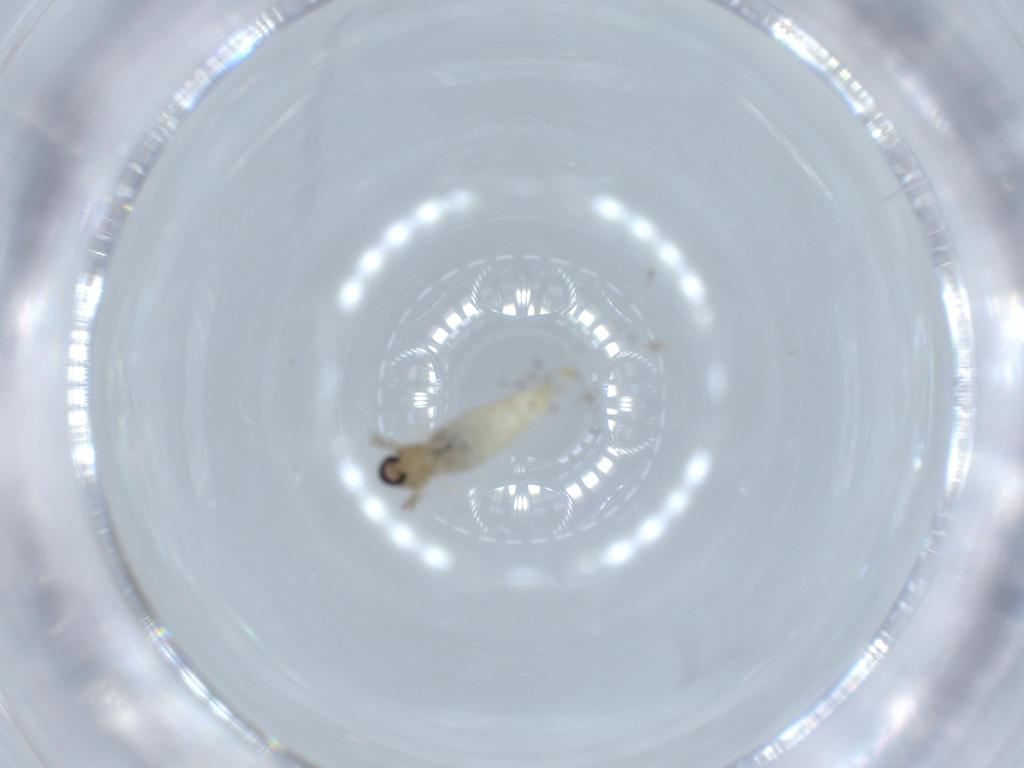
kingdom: Animalia
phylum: Arthropoda
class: Insecta
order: Diptera
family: Cecidomyiidae
